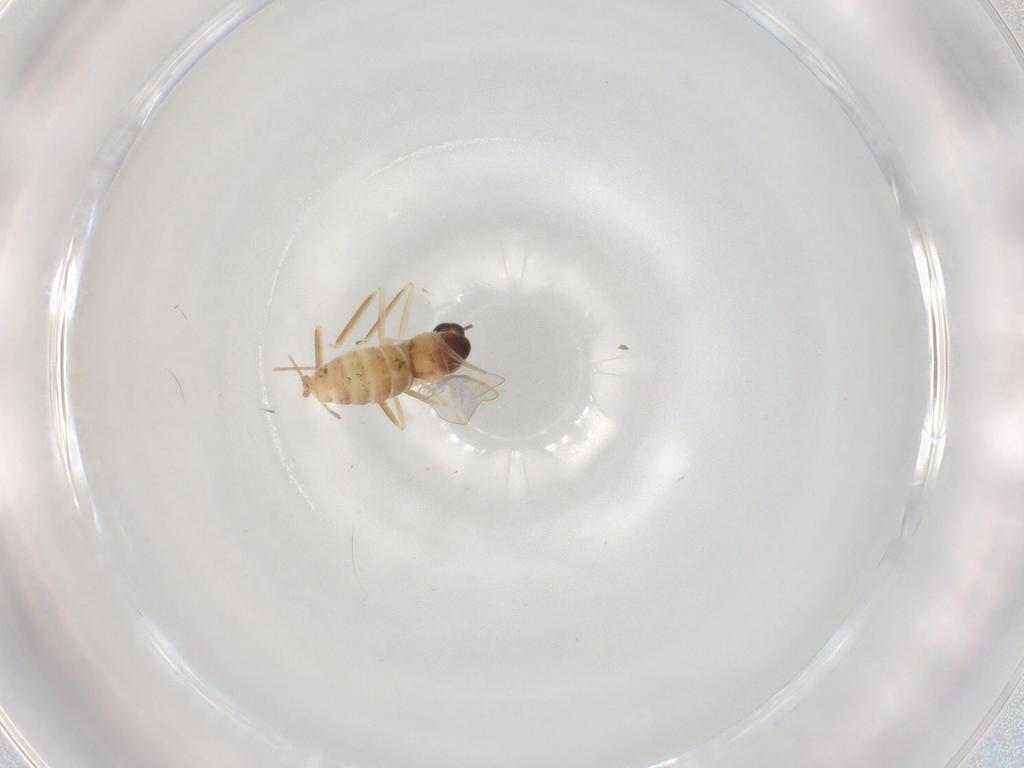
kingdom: Animalia
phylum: Arthropoda
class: Insecta
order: Diptera
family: Cecidomyiidae
